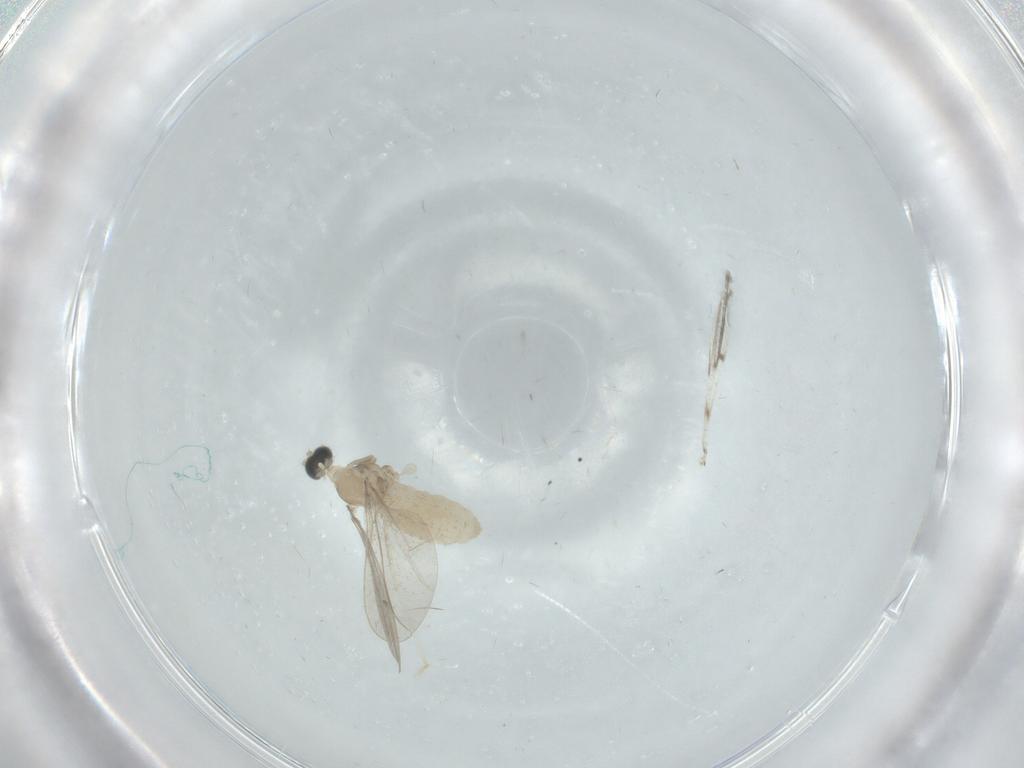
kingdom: Animalia
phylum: Arthropoda
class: Insecta
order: Diptera
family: Cecidomyiidae
